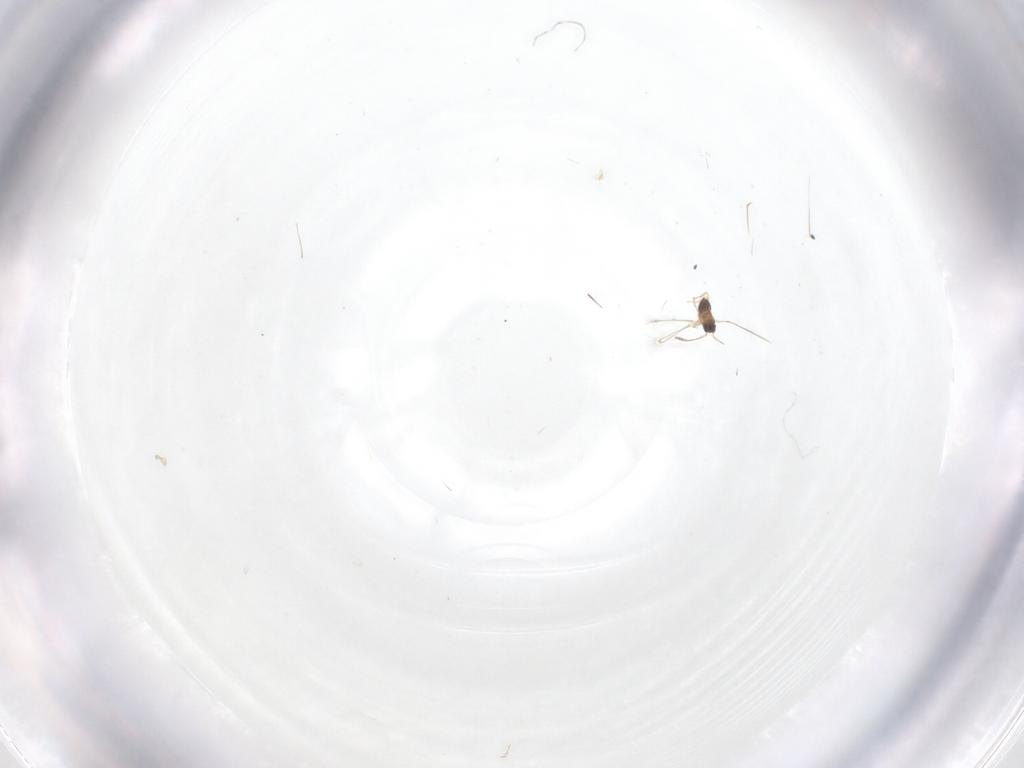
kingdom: Animalia
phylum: Arthropoda
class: Insecta
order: Hymenoptera
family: Mymaridae
